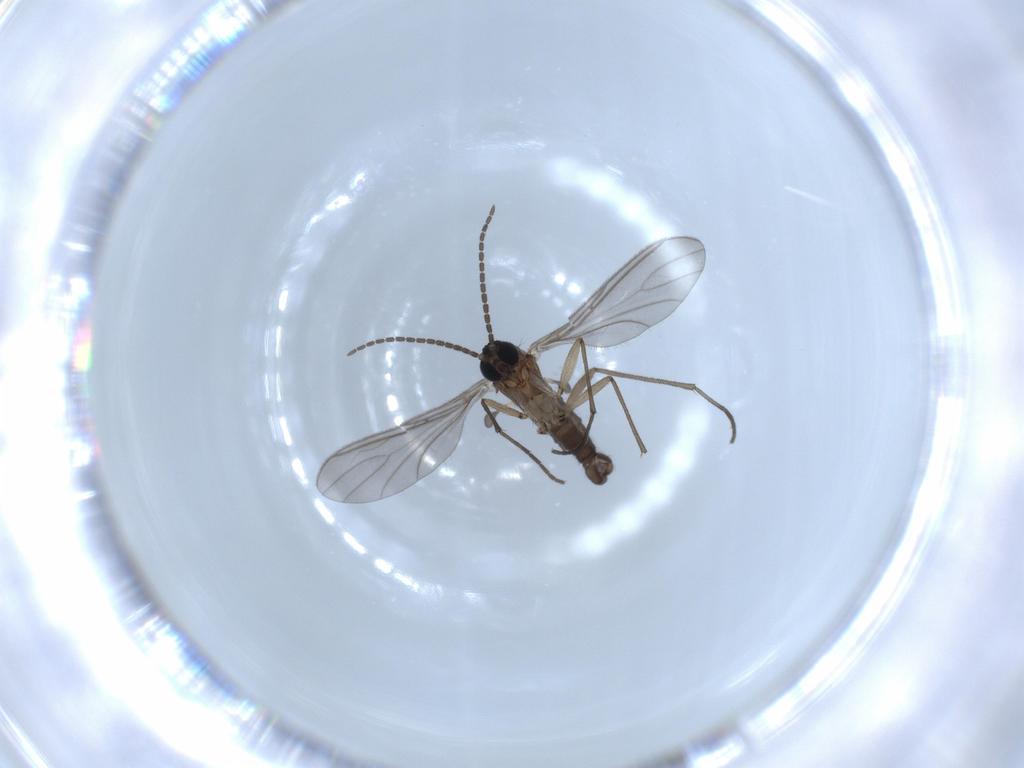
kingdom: Animalia
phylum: Arthropoda
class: Insecta
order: Diptera
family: Sciaridae
